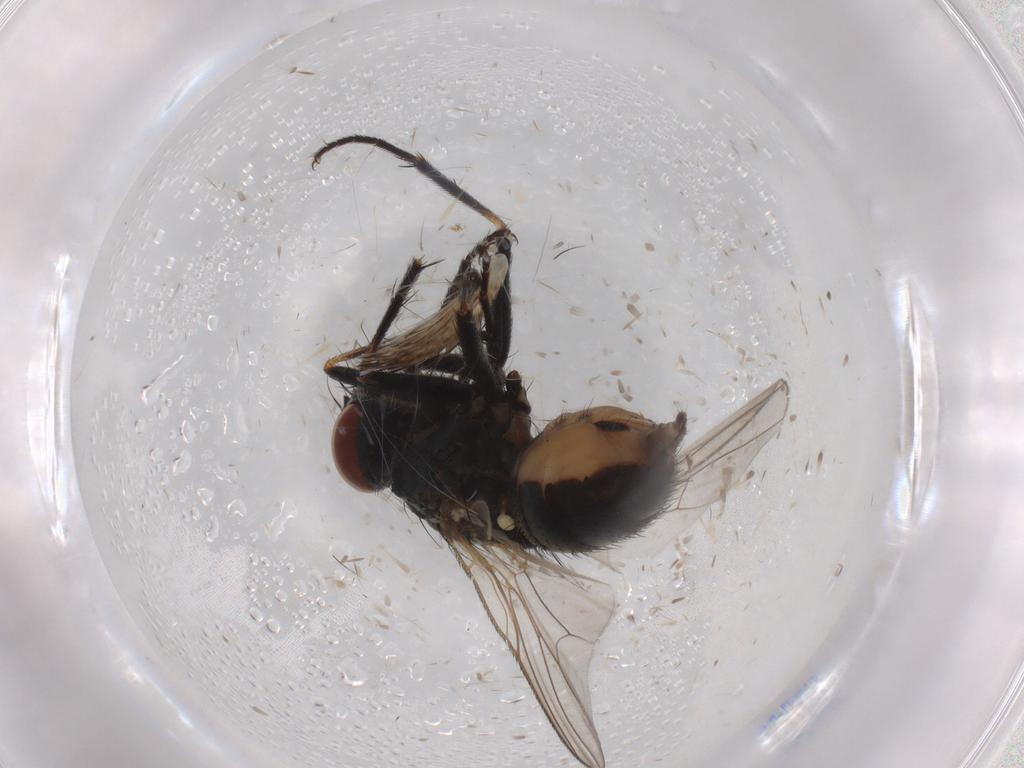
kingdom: Animalia
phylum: Arthropoda
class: Insecta
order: Diptera
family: Muscidae
